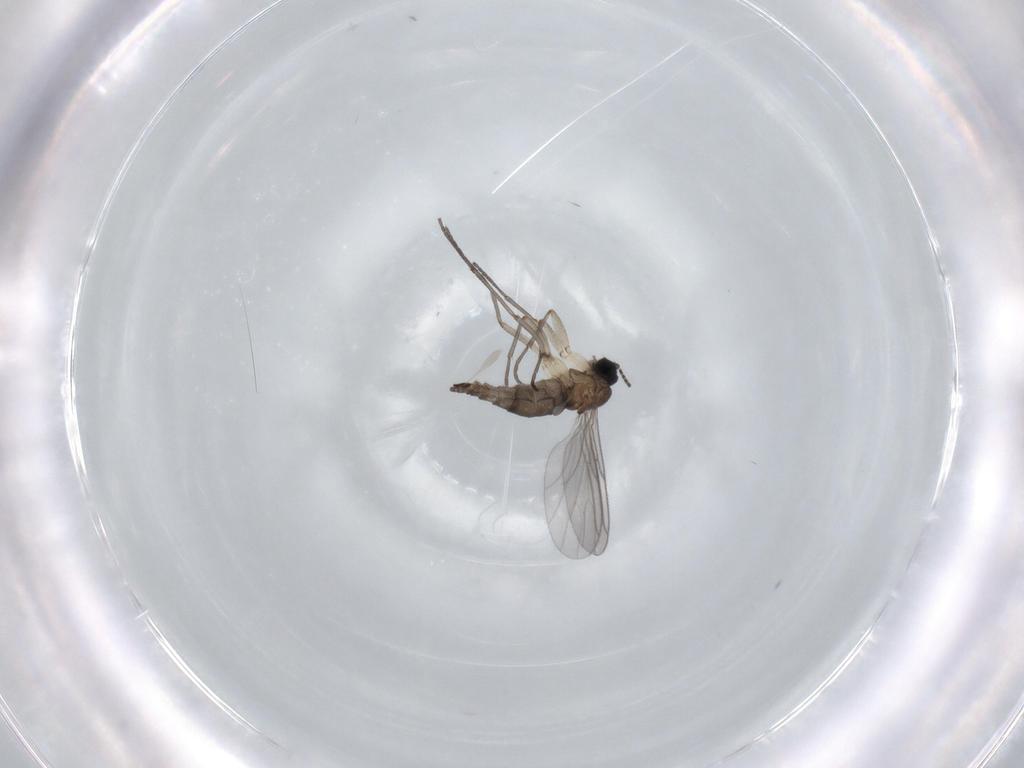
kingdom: Animalia
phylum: Arthropoda
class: Insecta
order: Diptera
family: Sciaridae
